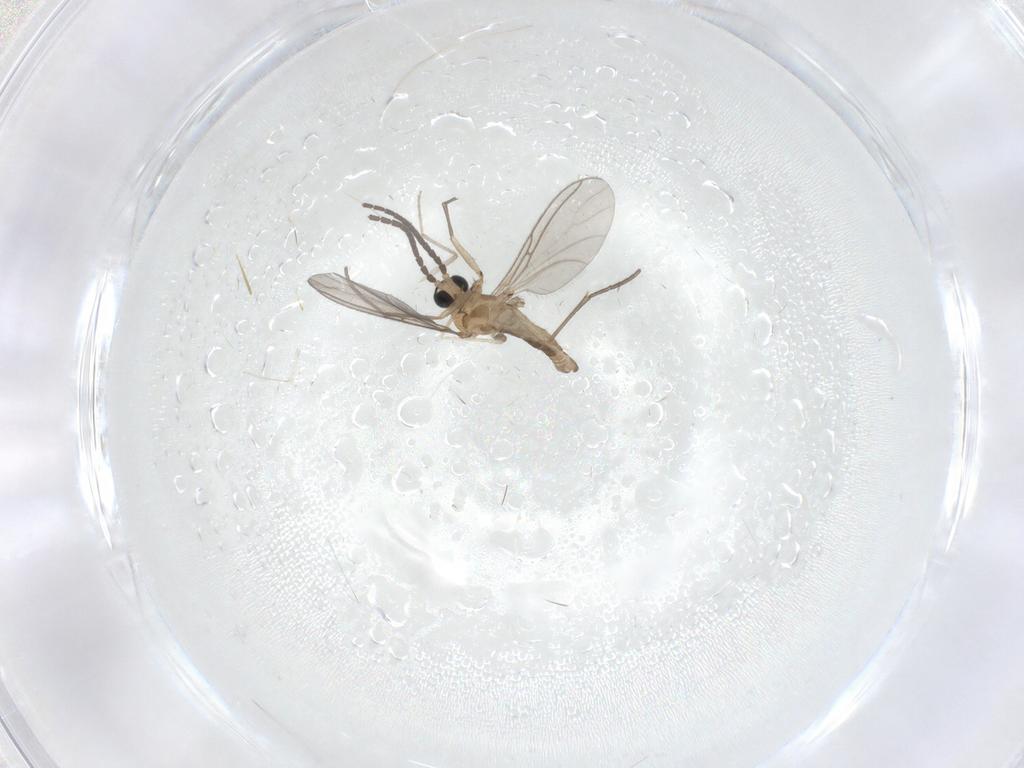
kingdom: Animalia
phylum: Arthropoda
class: Insecta
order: Diptera
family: Sciaridae
